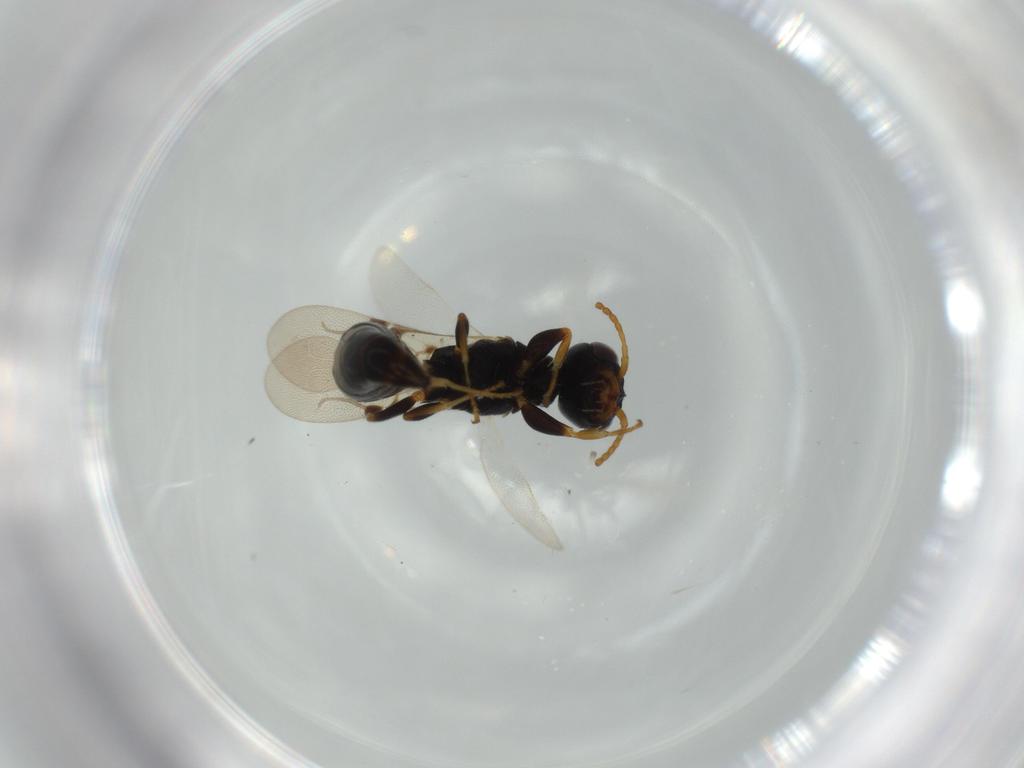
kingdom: Animalia
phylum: Arthropoda
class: Insecta
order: Hymenoptera
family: Bethylidae
